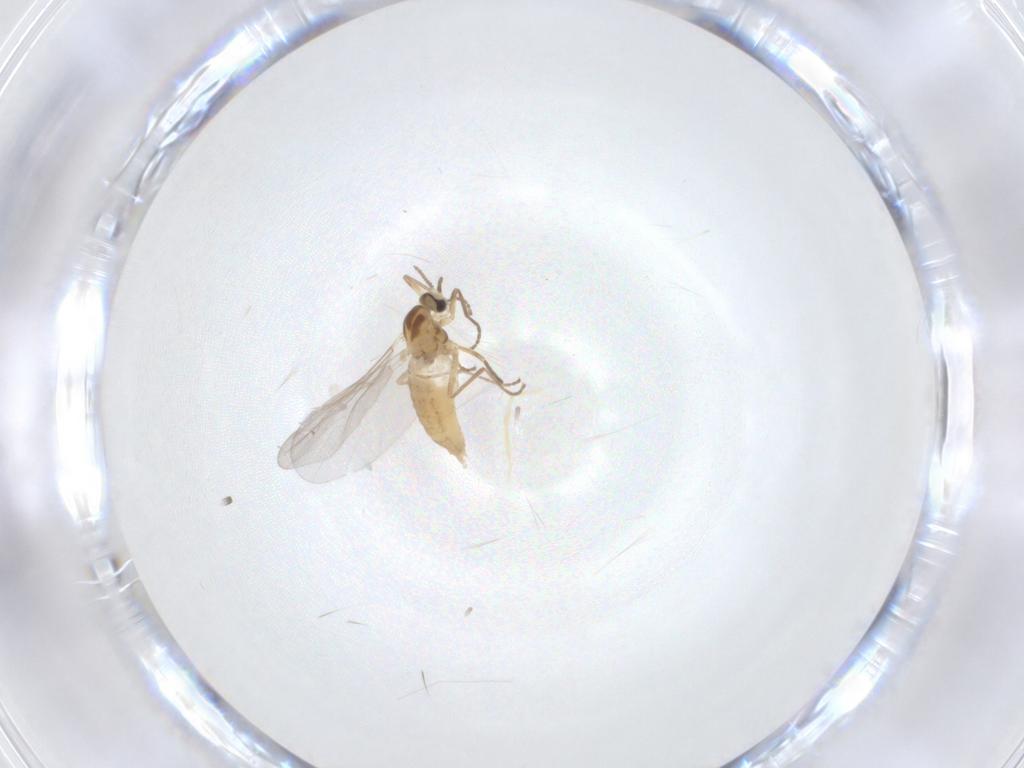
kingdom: Animalia
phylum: Arthropoda
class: Insecta
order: Diptera
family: Cecidomyiidae
